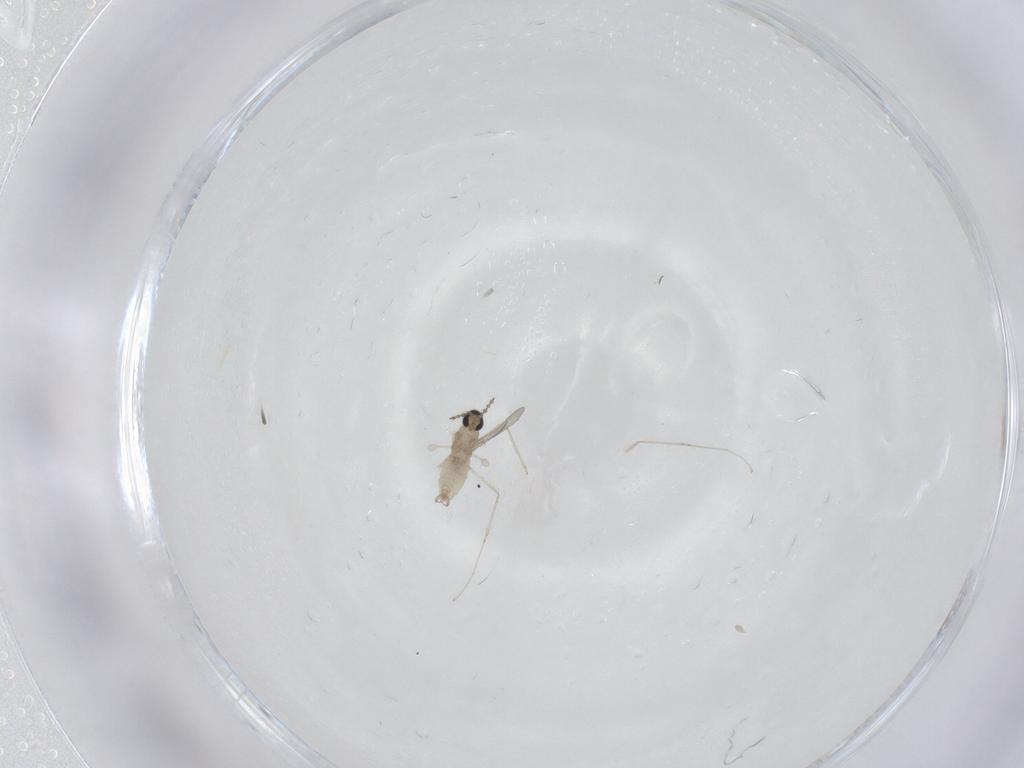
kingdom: Animalia
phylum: Arthropoda
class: Insecta
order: Diptera
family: Cecidomyiidae
